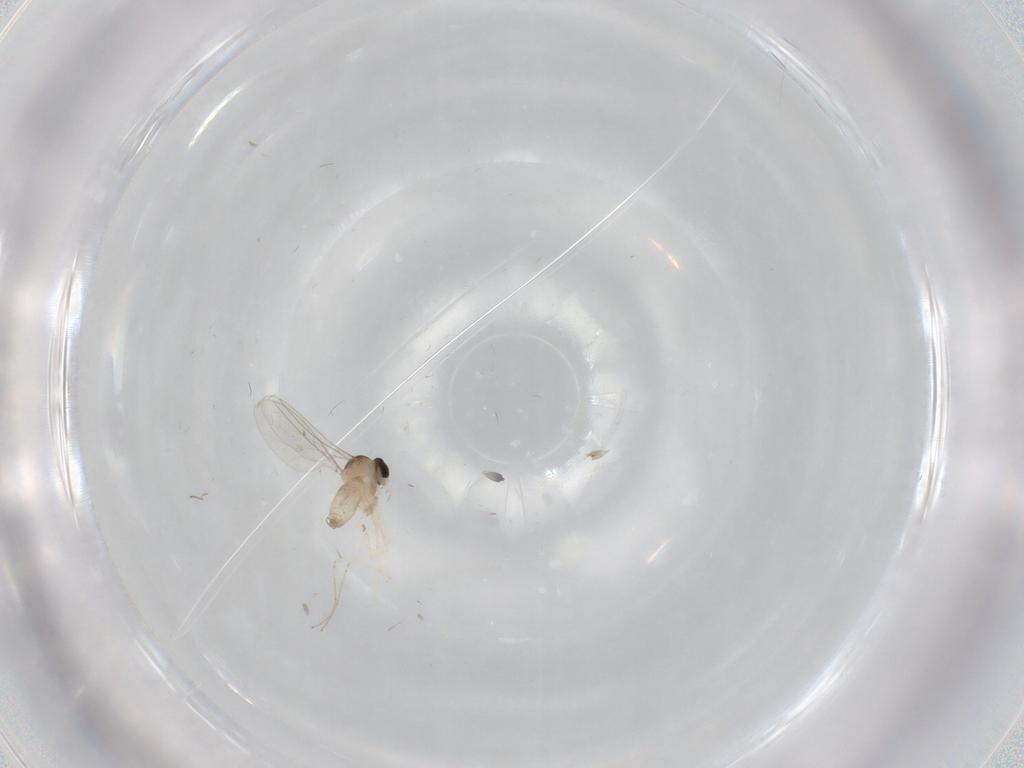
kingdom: Animalia
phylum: Arthropoda
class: Insecta
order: Diptera
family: Cecidomyiidae
